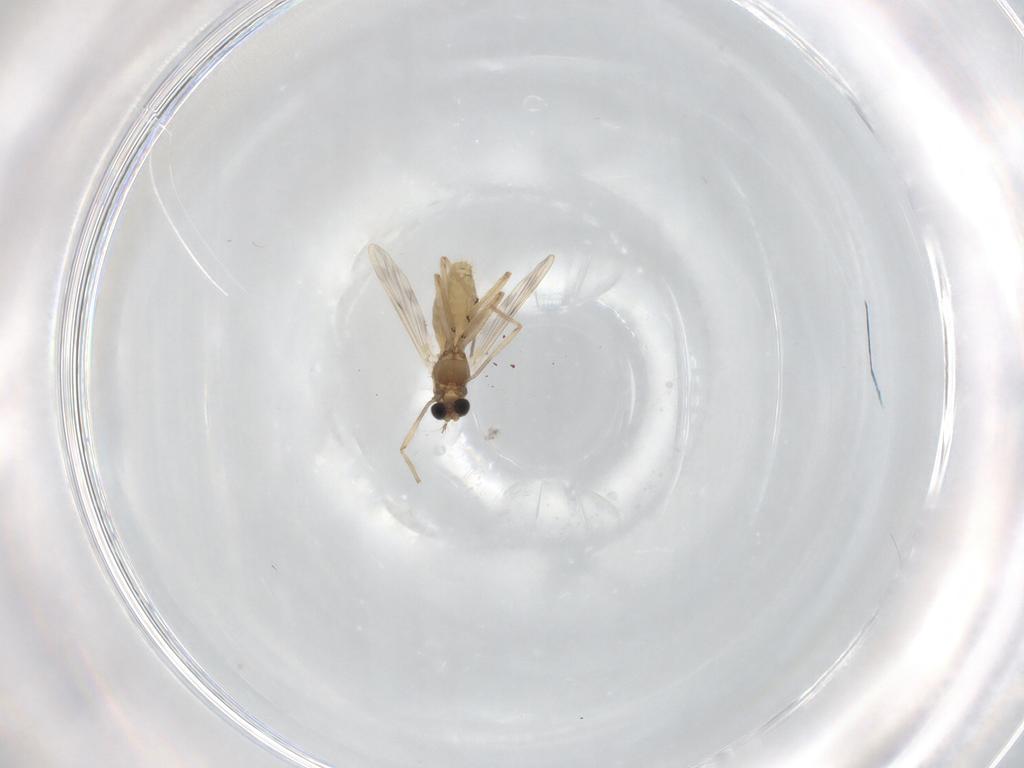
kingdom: Animalia
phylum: Arthropoda
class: Insecta
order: Diptera
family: Chironomidae
